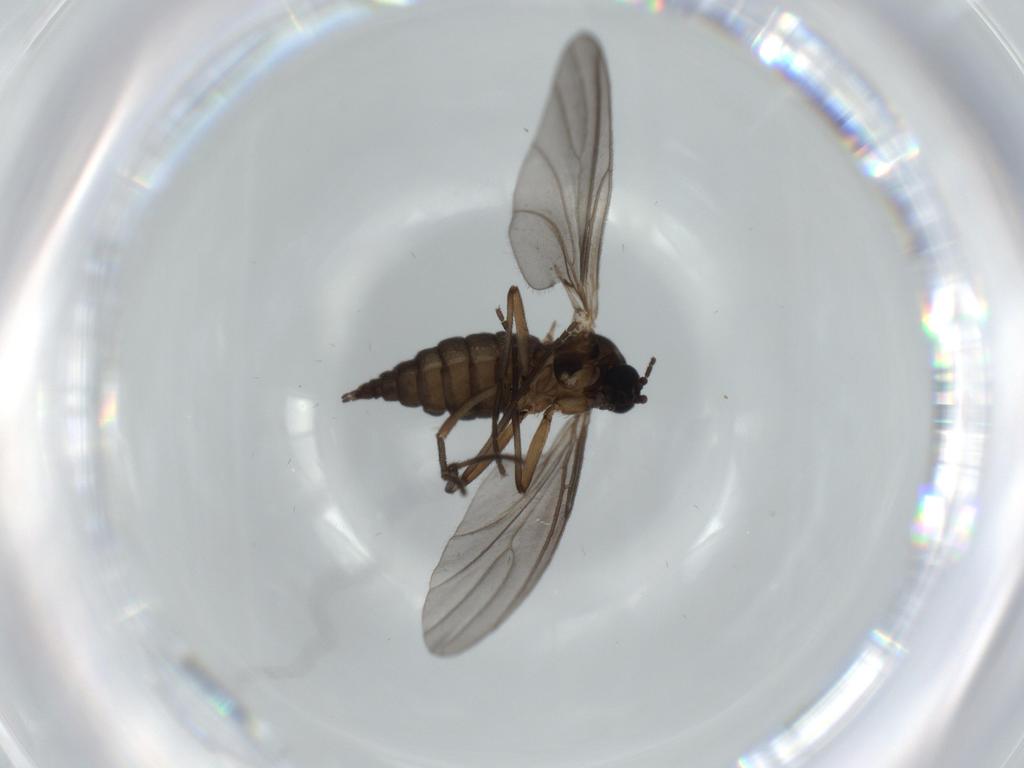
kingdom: Animalia
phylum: Arthropoda
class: Insecta
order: Diptera
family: Sciaridae
